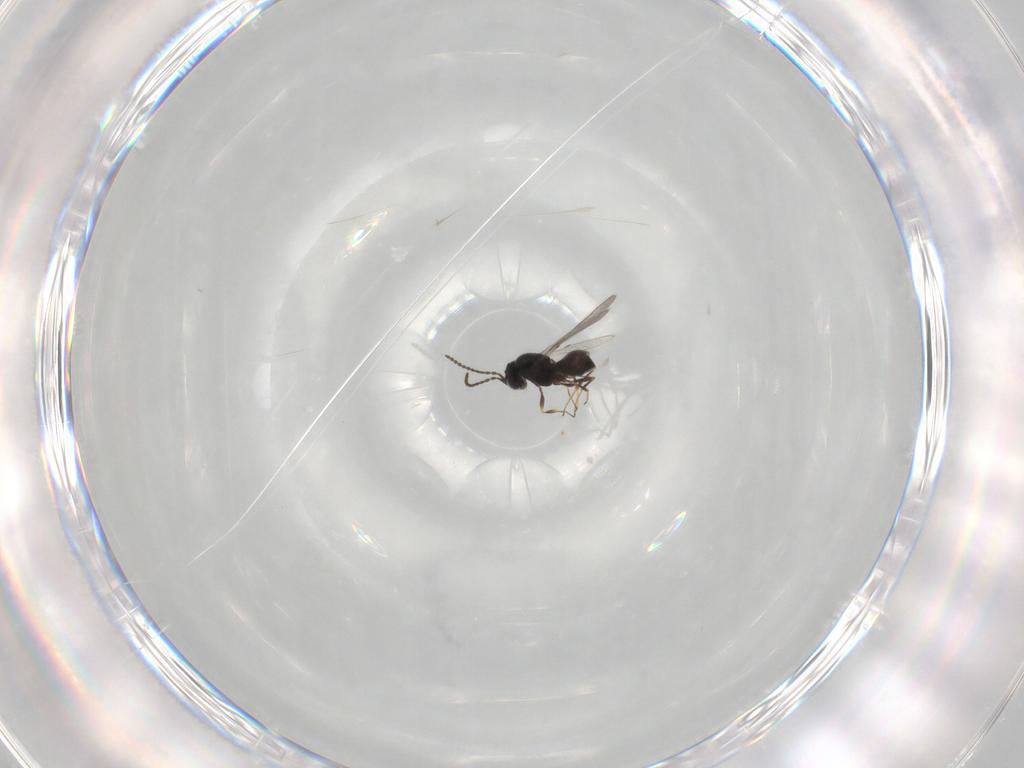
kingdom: Animalia
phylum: Arthropoda
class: Insecta
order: Hymenoptera
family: Scelionidae
